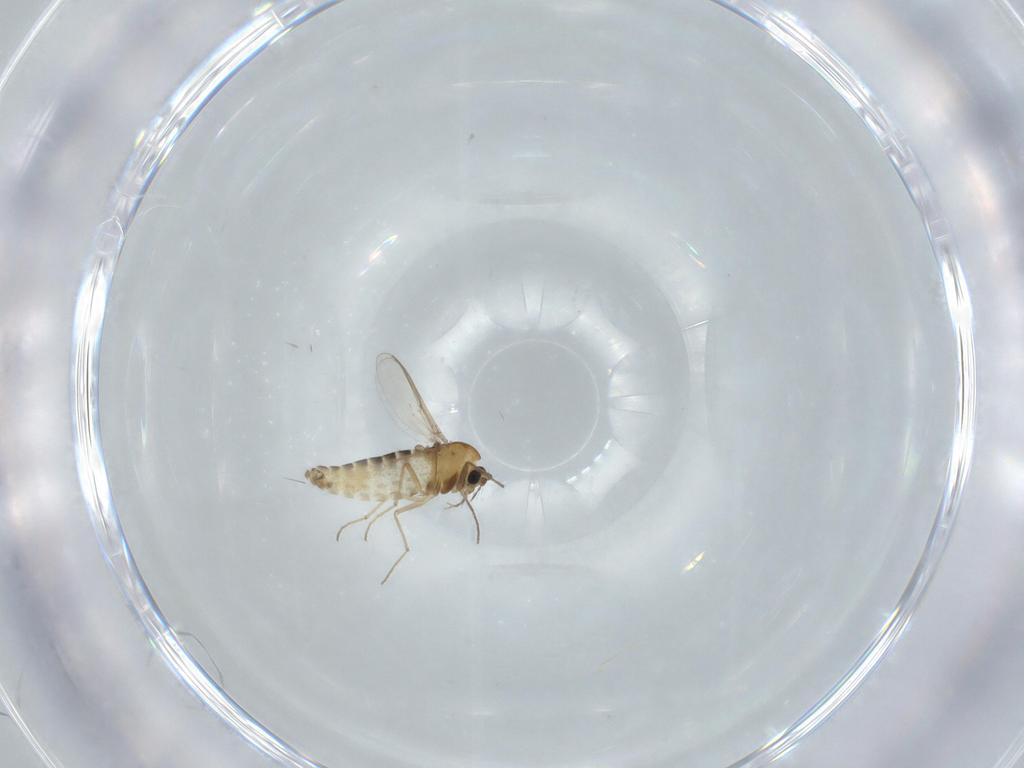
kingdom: Animalia
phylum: Arthropoda
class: Insecta
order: Diptera
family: Chironomidae
